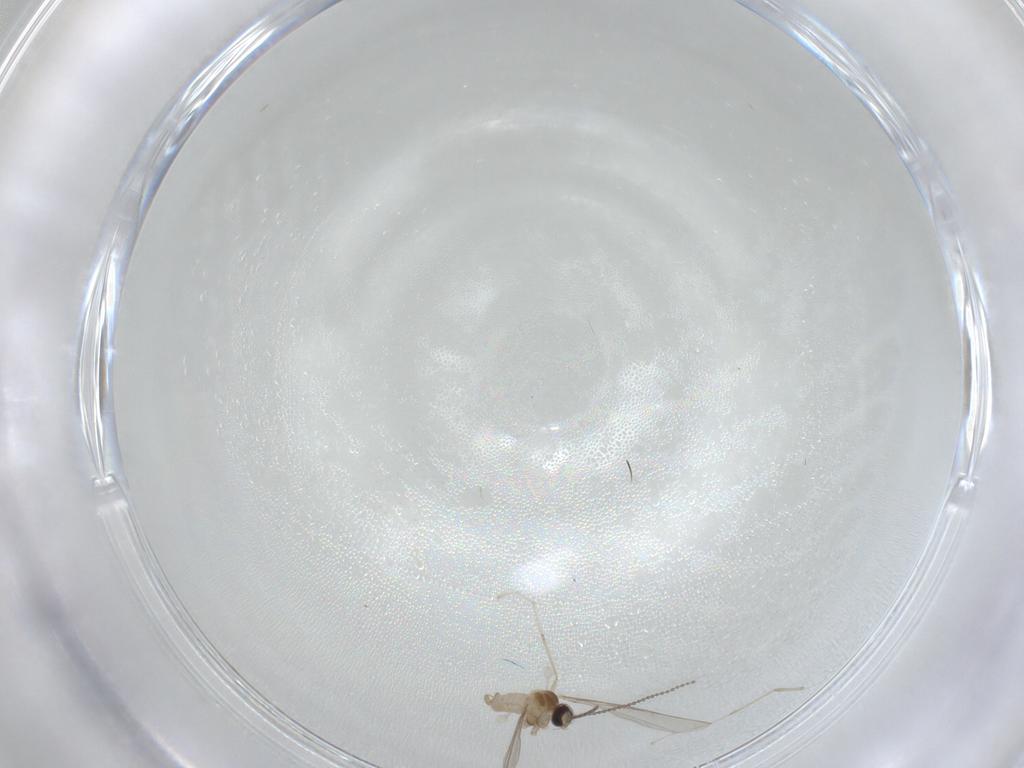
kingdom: Animalia
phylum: Arthropoda
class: Insecta
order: Diptera
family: Cecidomyiidae
